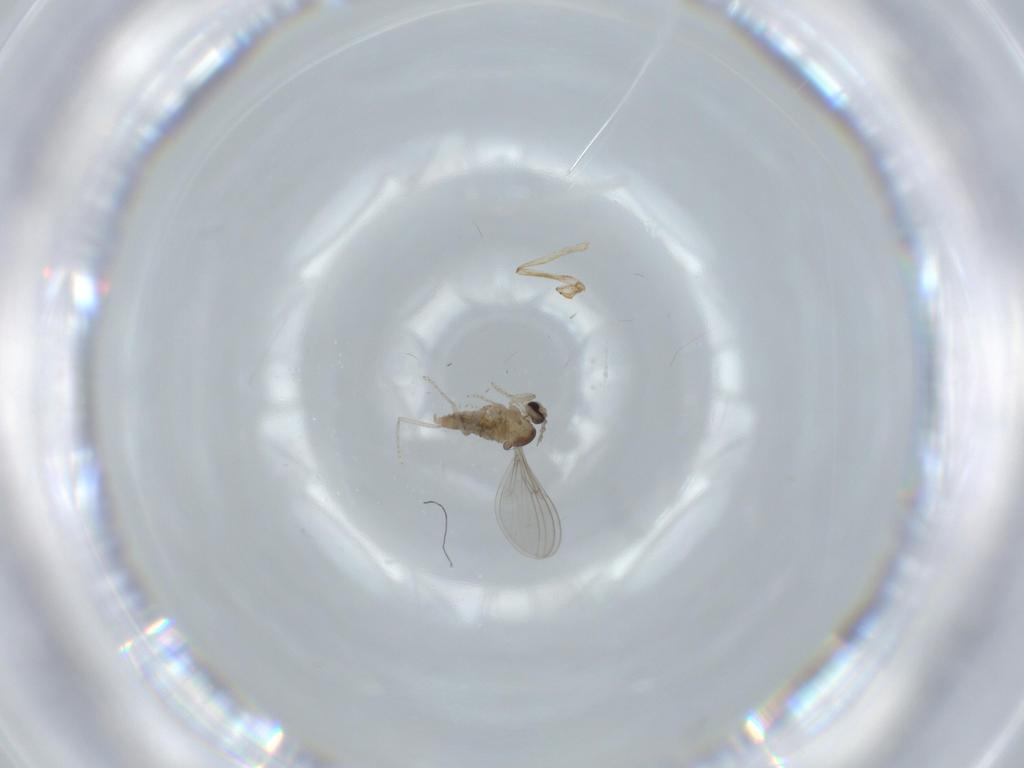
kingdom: Animalia
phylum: Arthropoda
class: Insecta
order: Diptera
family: Cecidomyiidae
